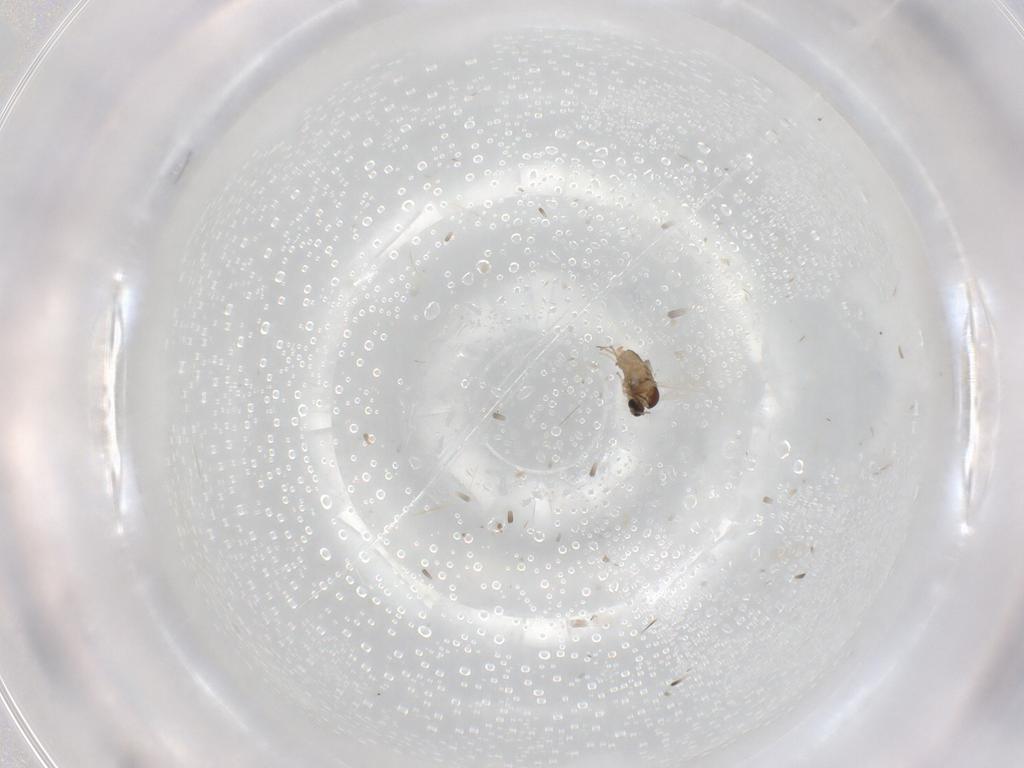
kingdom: Animalia
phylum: Arthropoda
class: Insecta
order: Diptera
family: Cecidomyiidae
